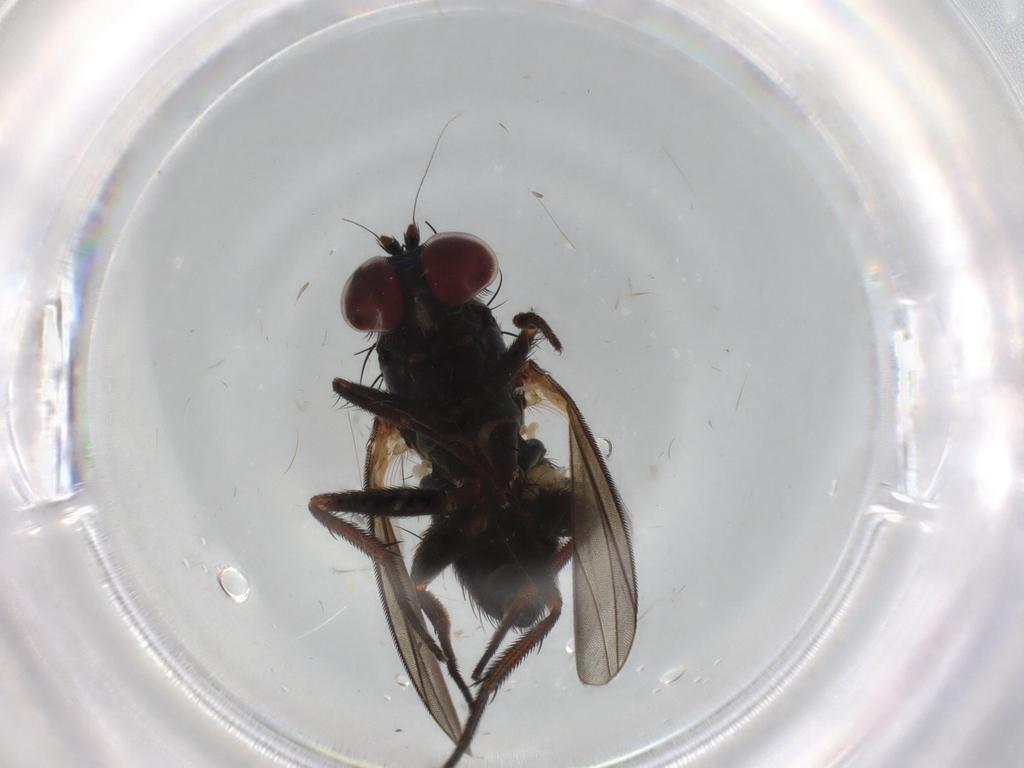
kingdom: Animalia
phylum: Arthropoda
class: Insecta
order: Diptera
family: Dolichopodidae
